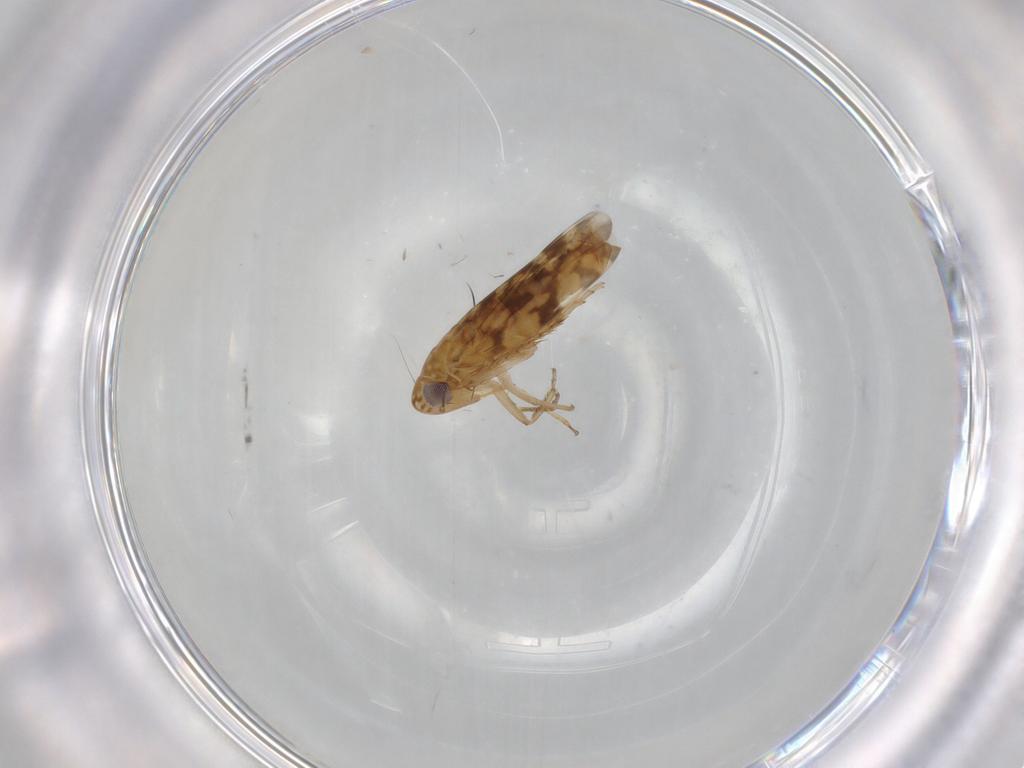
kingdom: Animalia
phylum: Arthropoda
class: Insecta
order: Hemiptera
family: Cicadellidae
